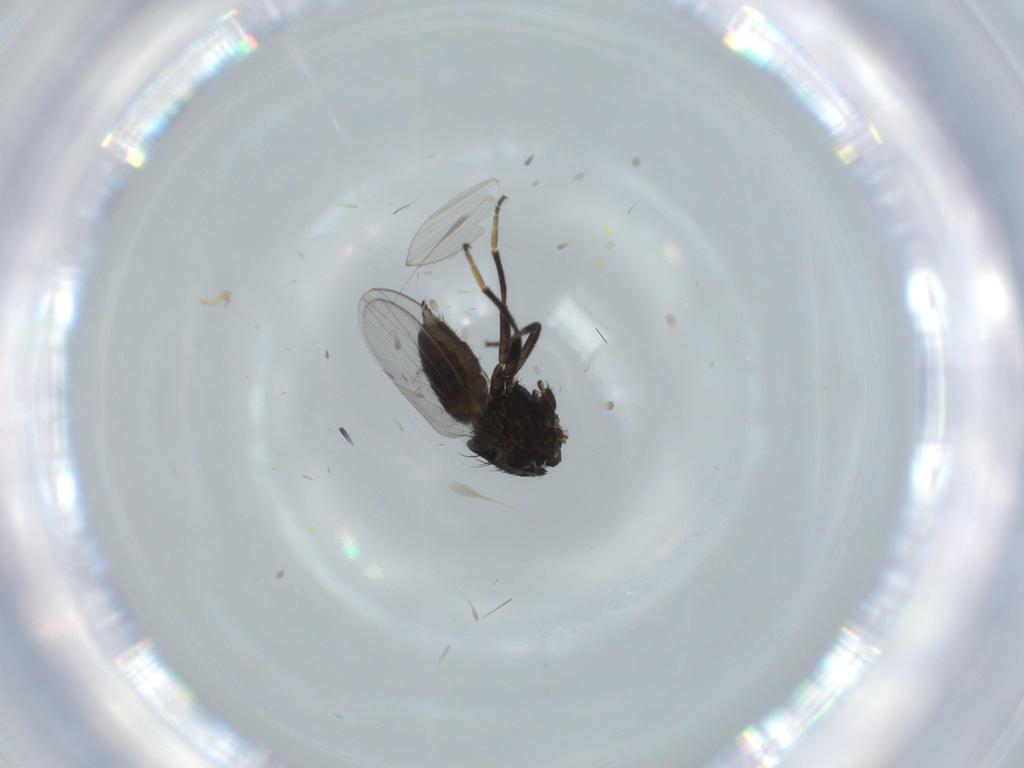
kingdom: Animalia
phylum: Arthropoda
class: Insecta
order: Diptera
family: Milichiidae
